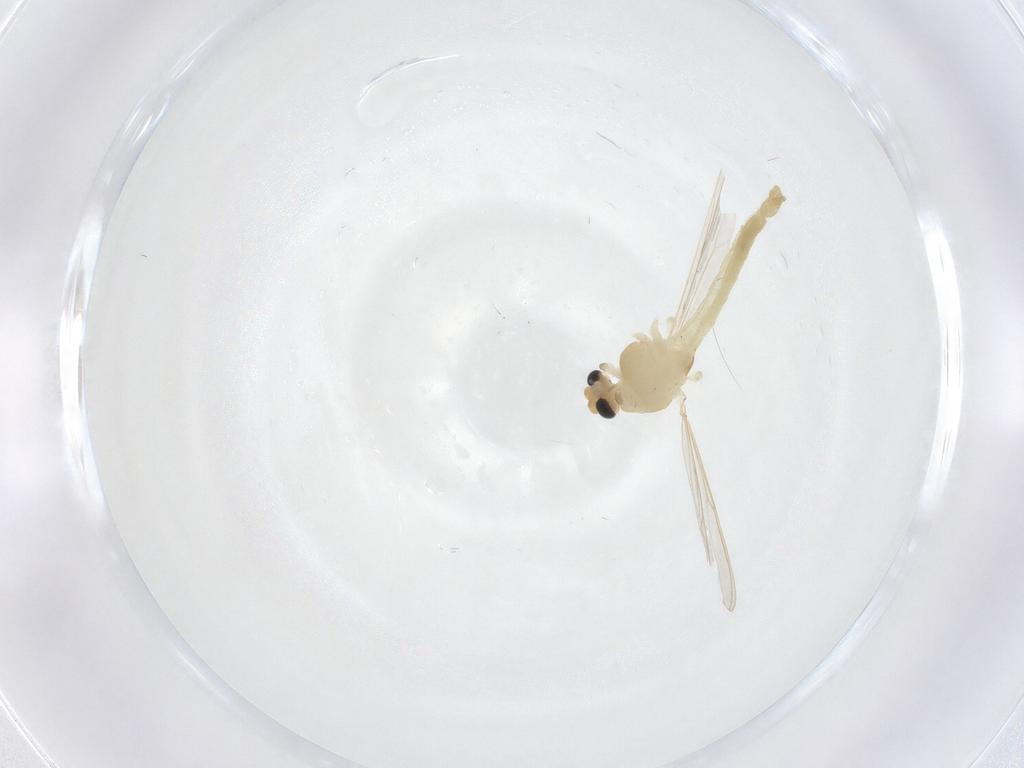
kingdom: Animalia
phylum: Arthropoda
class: Insecta
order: Diptera
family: Chironomidae
